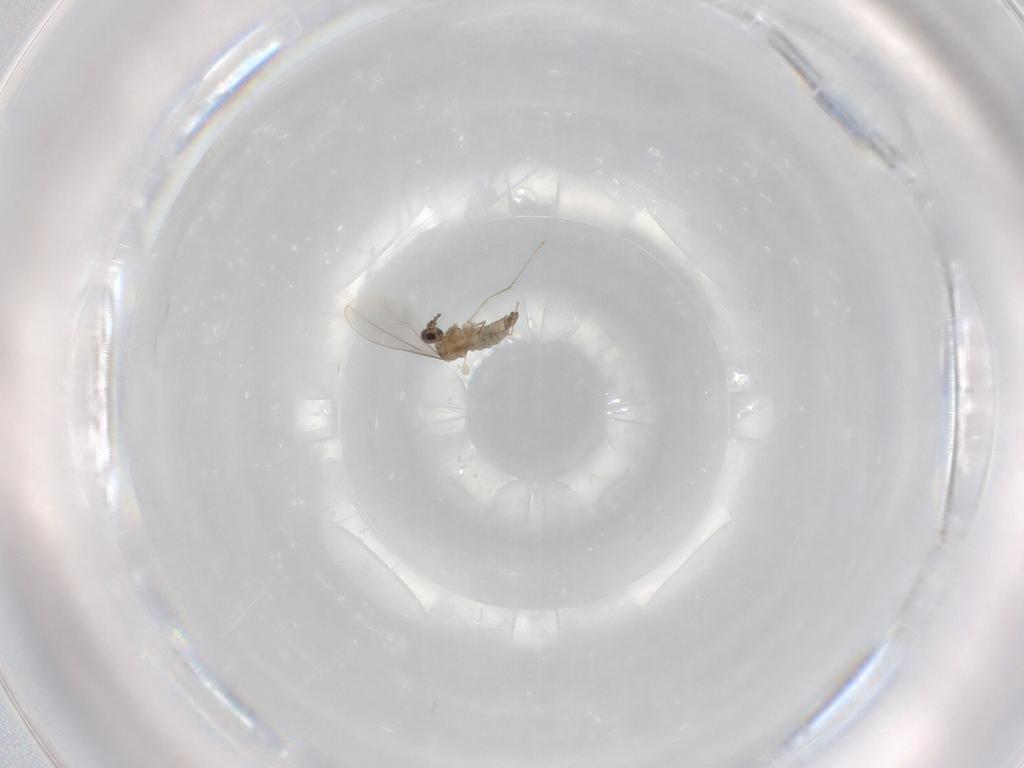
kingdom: Animalia
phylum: Arthropoda
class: Insecta
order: Diptera
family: Cecidomyiidae
